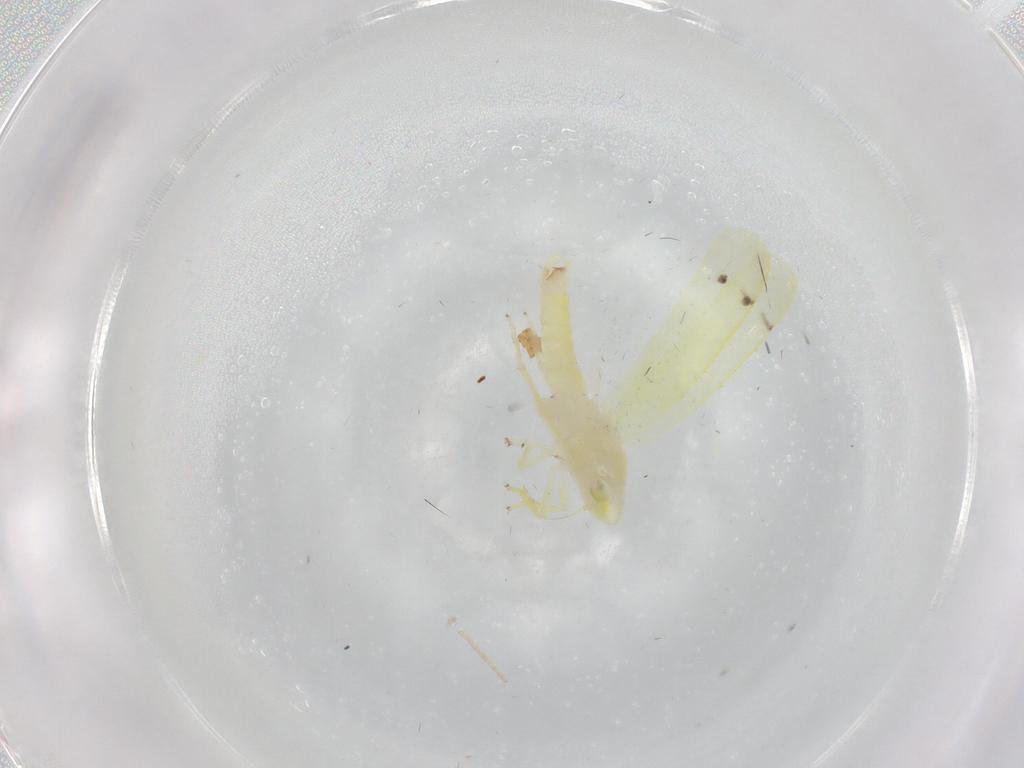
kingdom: Animalia
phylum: Arthropoda
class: Insecta
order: Hemiptera
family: Cicadellidae
